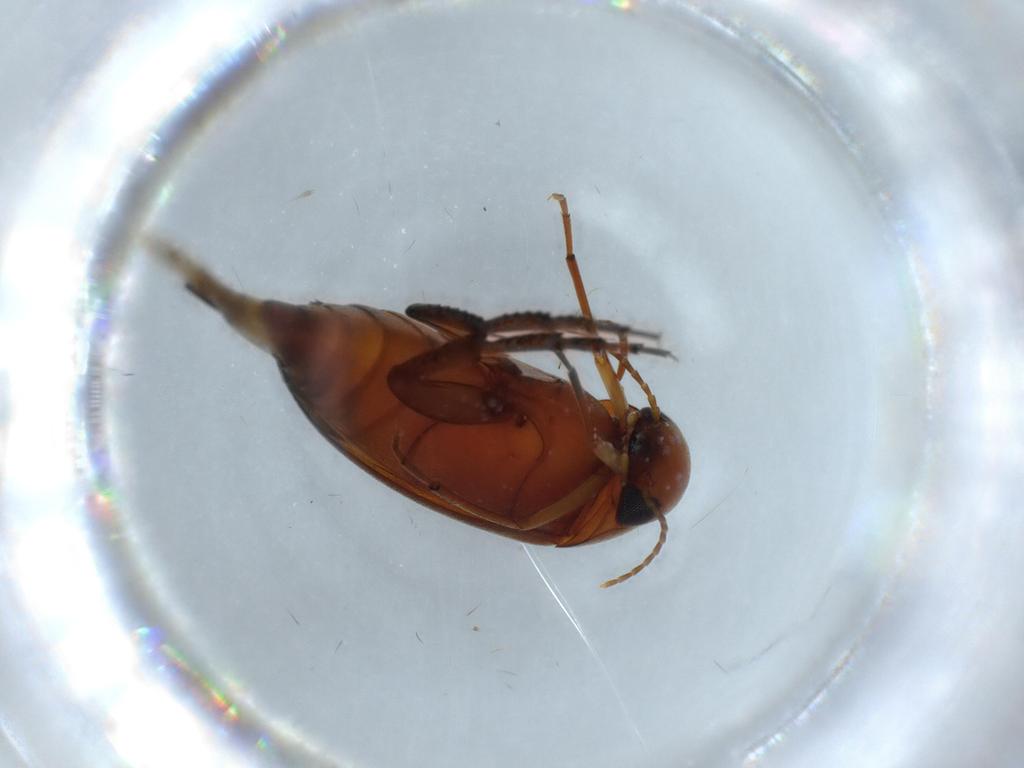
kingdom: Animalia
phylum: Arthropoda
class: Insecta
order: Coleoptera
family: Mordellidae
